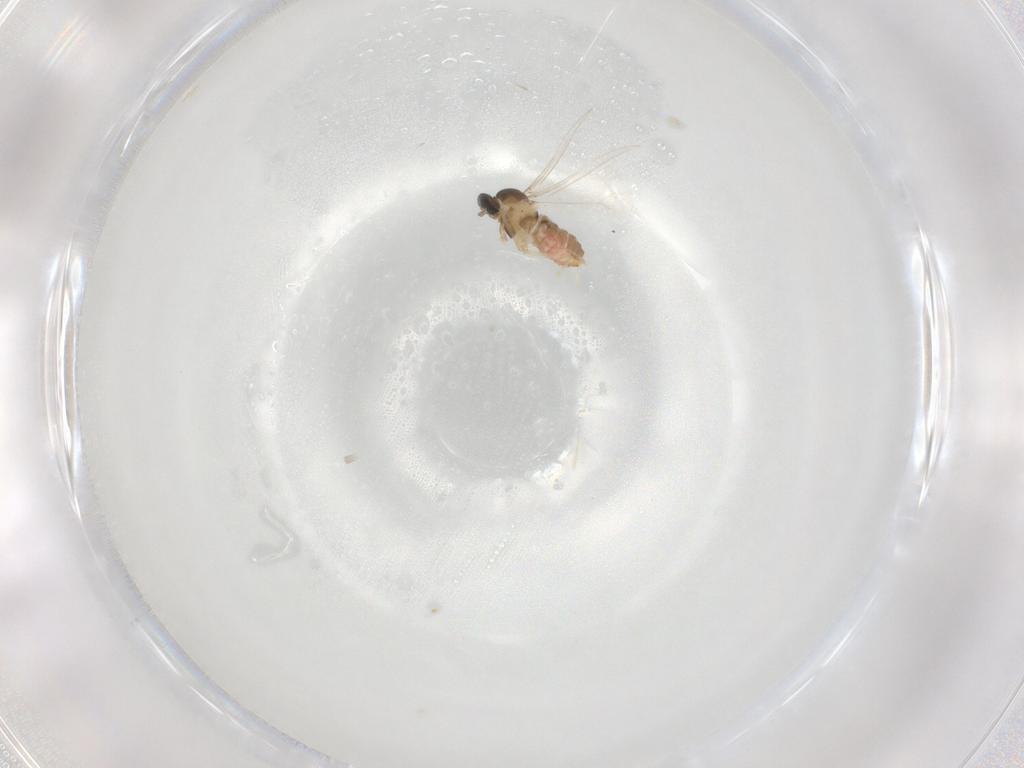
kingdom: Animalia
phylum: Arthropoda
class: Insecta
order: Diptera
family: Cecidomyiidae
